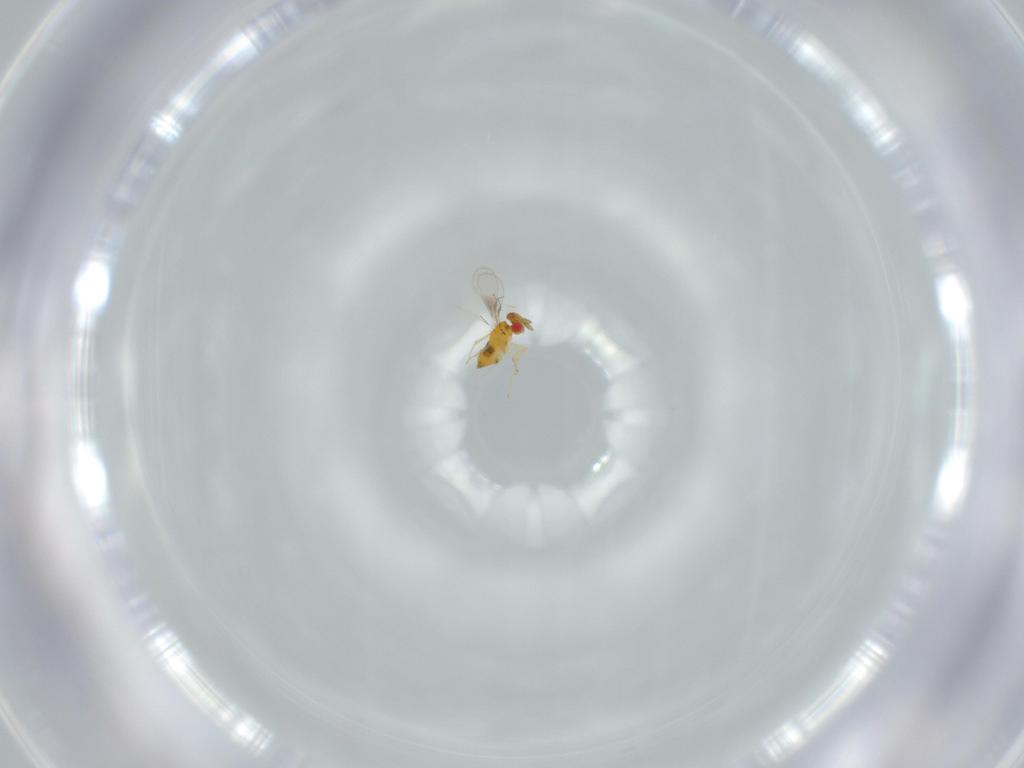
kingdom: Animalia
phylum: Arthropoda
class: Insecta
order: Hymenoptera
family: Trichogrammatidae
